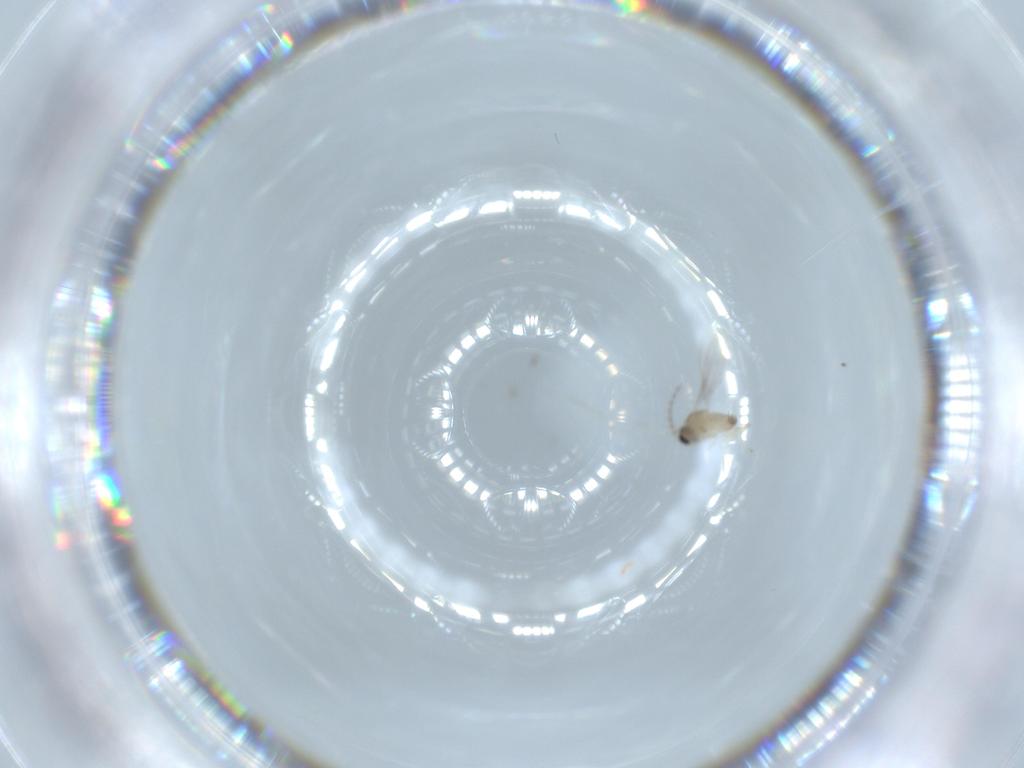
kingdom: Animalia
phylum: Arthropoda
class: Insecta
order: Diptera
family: Cecidomyiidae
